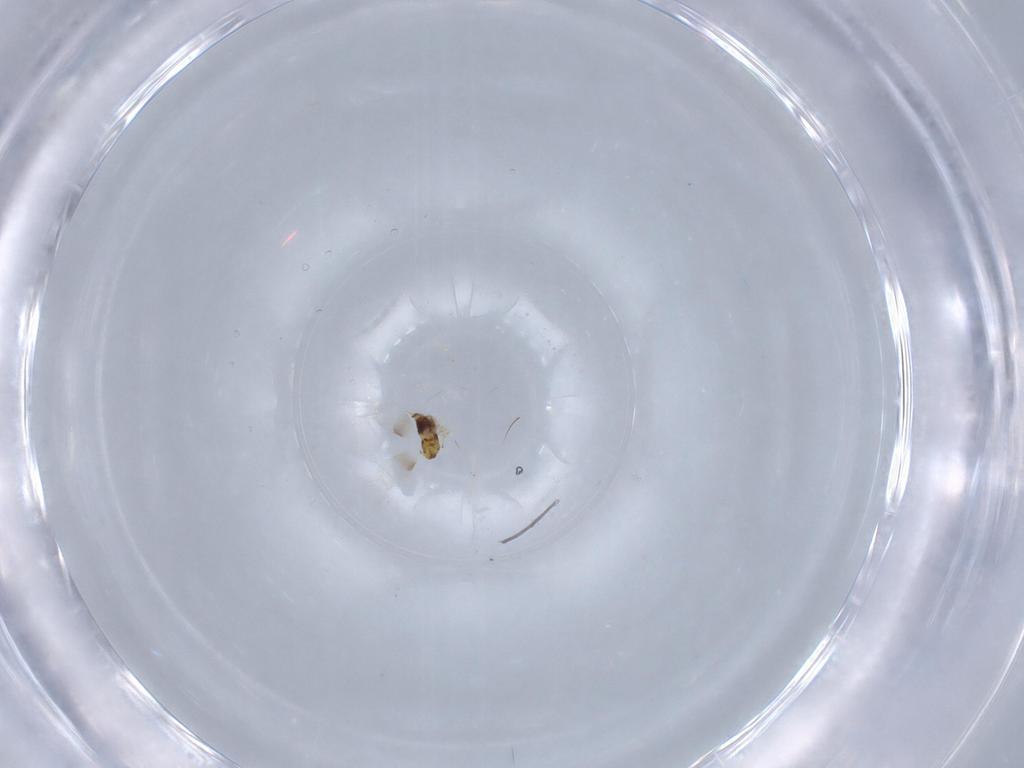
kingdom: Animalia
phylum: Arthropoda
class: Insecta
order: Hymenoptera
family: Aphelinidae
